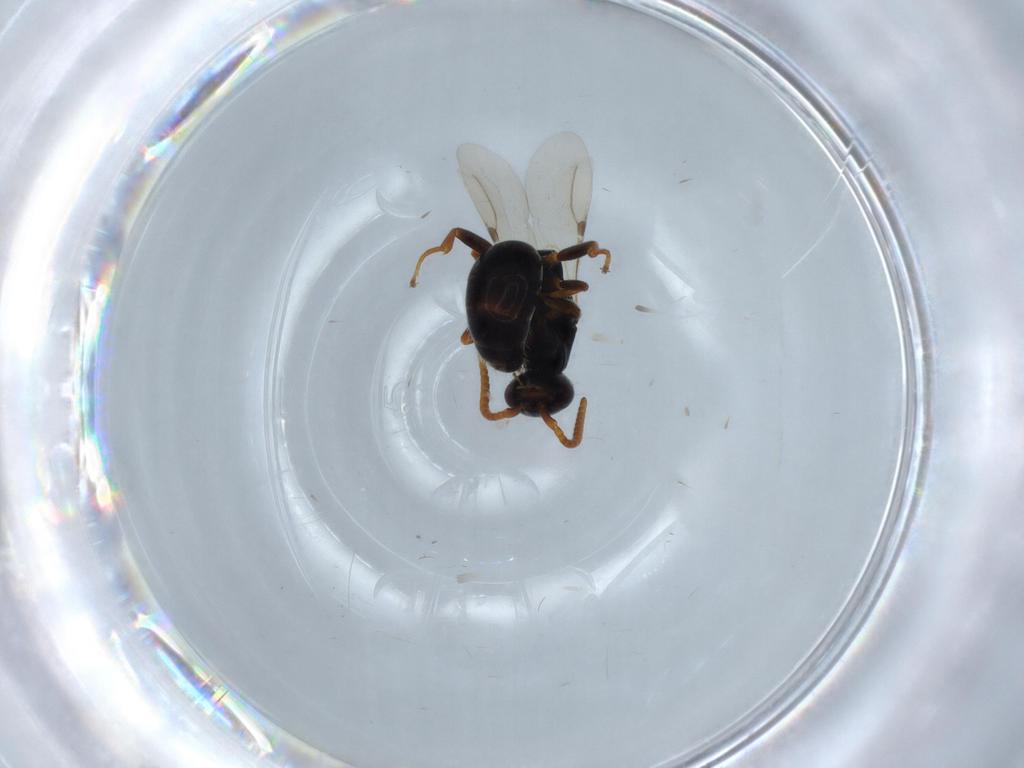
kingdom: Animalia
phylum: Arthropoda
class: Insecta
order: Hymenoptera
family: Bethylidae
